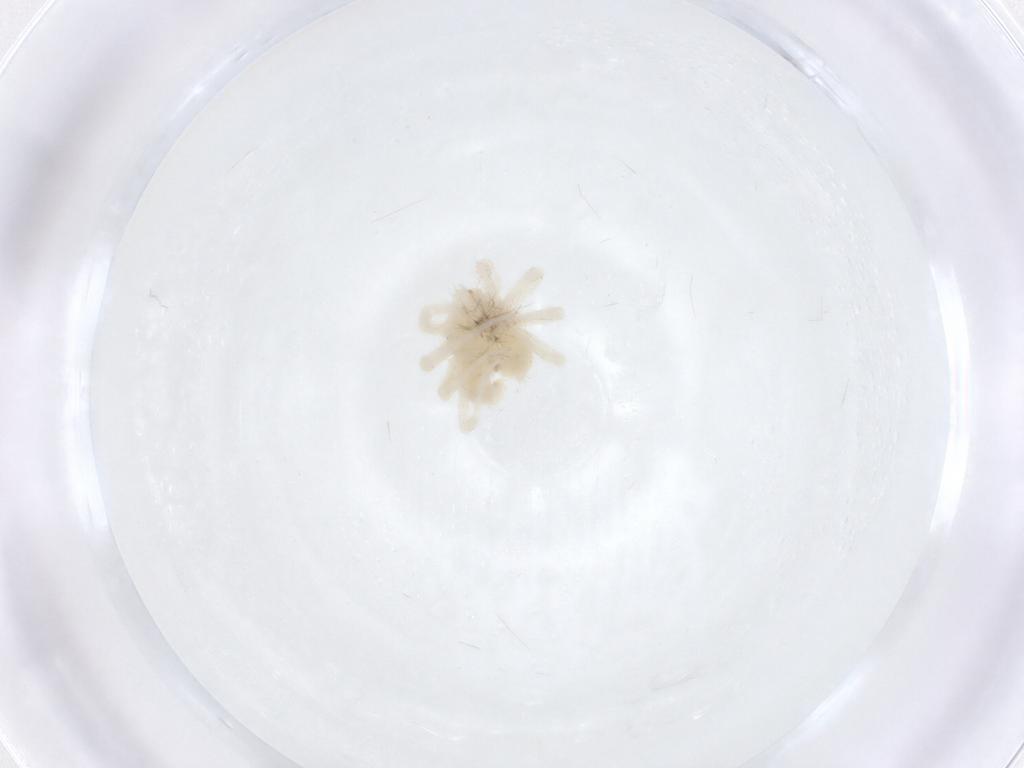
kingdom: Animalia
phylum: Arthropoda
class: Arachnida
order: Trombidiformes
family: Anystidae
